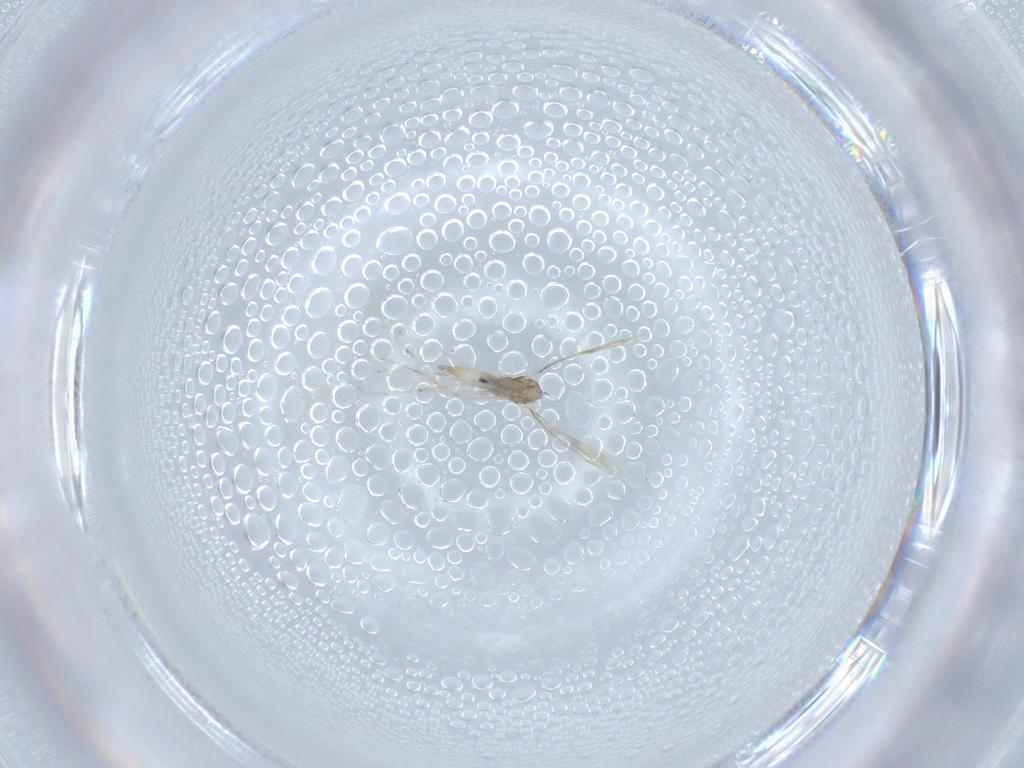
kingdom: Animalia
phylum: Arthropoda
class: Insecta
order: Diptera
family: Cecidomyiidae
